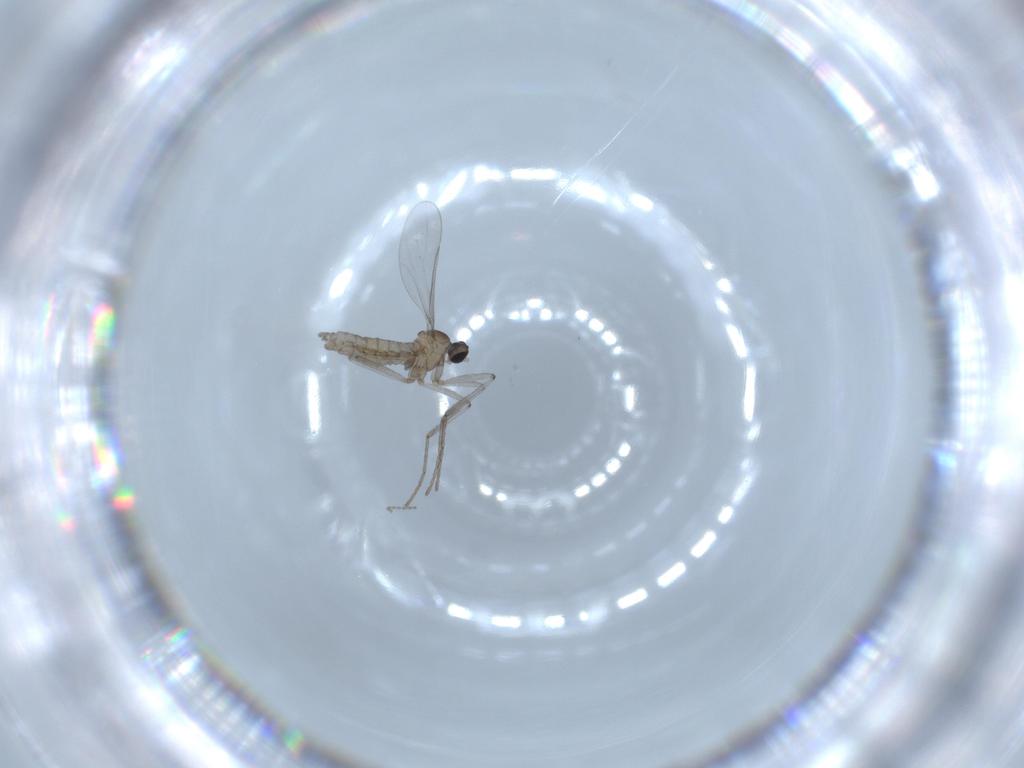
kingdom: Animalia
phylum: Arthropoda
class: Insecta
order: Diptera
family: Cecidomyiidae
